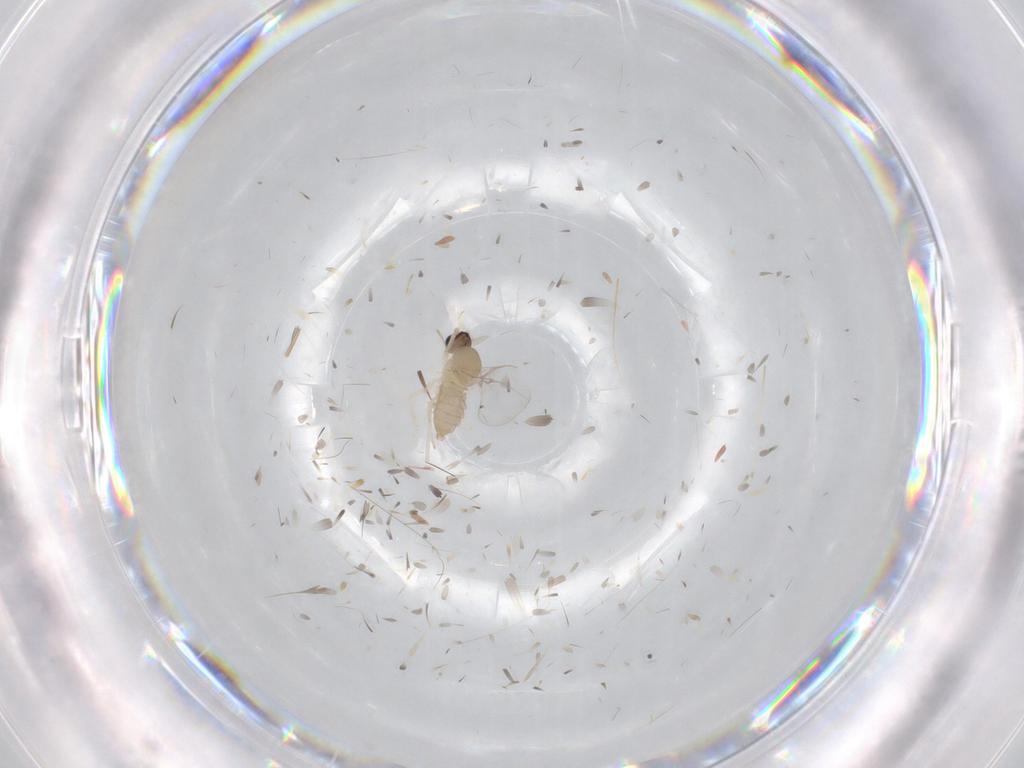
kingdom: Animalia
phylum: Arthropoda
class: Insecta
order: Diptera
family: Cecidomyiidae
